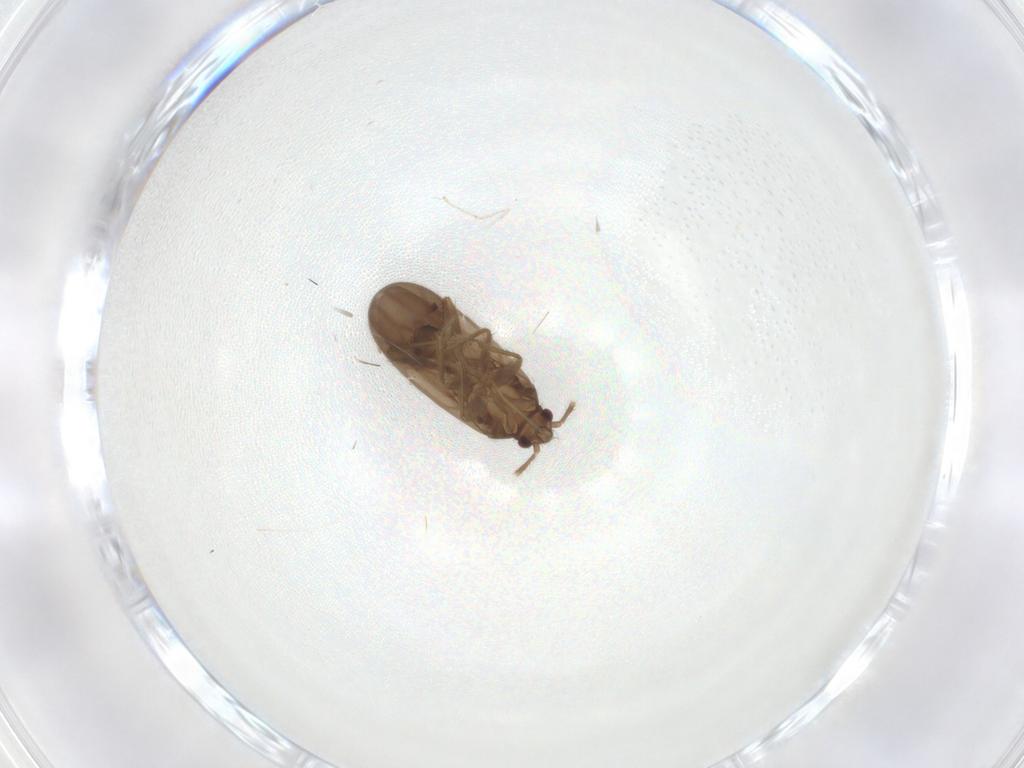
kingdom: Animalia
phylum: Arthropoda
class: Insecta
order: Hemiptera
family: Ceratocombidae
